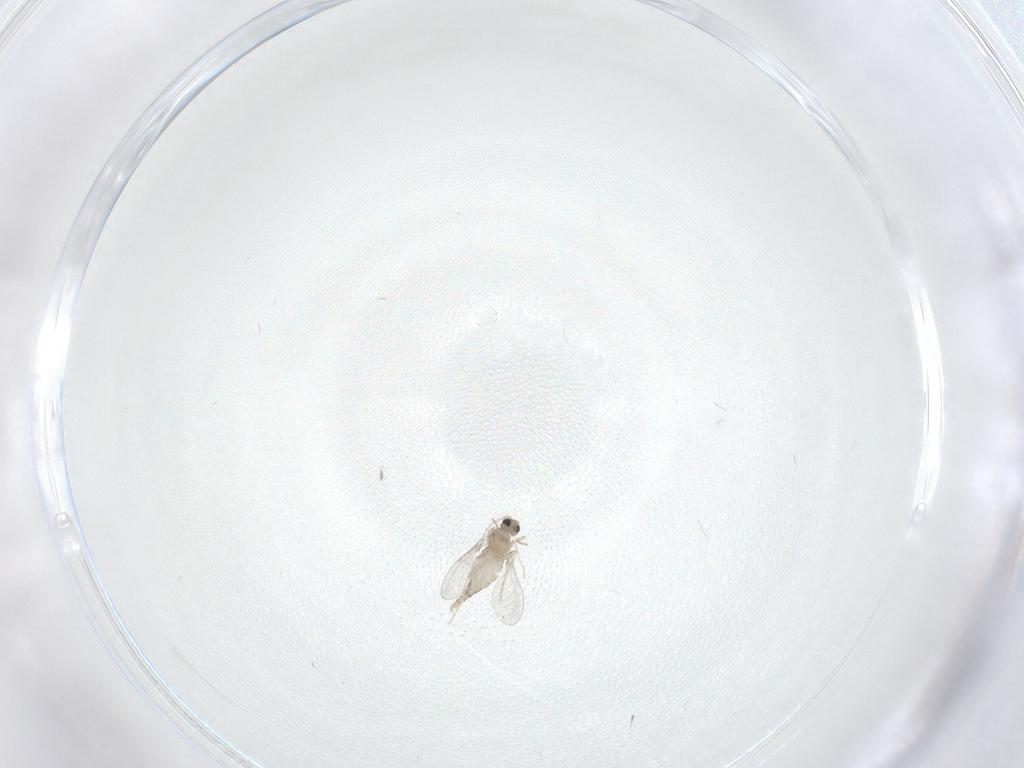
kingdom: Animalia
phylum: Arthropoda
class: Insecta
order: Diptera
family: Cecidomyiidae
